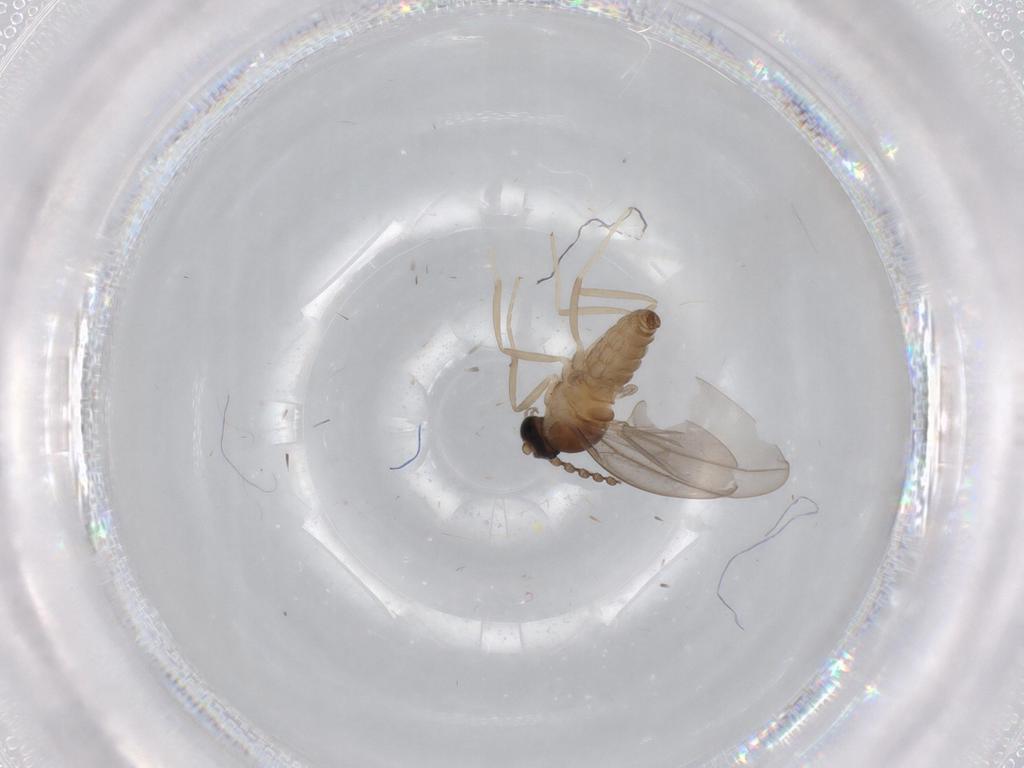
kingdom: Animalia
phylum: Arthropoda
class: Insecta
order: Diptera
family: Cecidomyiidae
